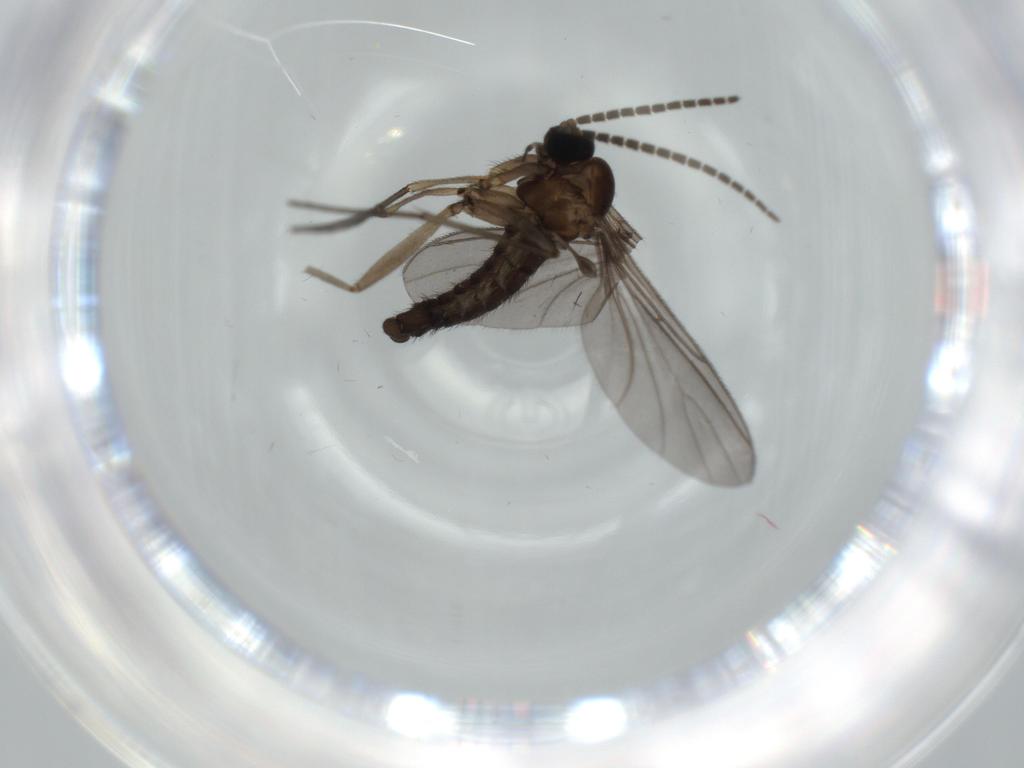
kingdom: Animalia
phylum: Arthropoda
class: Insecta
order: Diptera
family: Sciaridae
